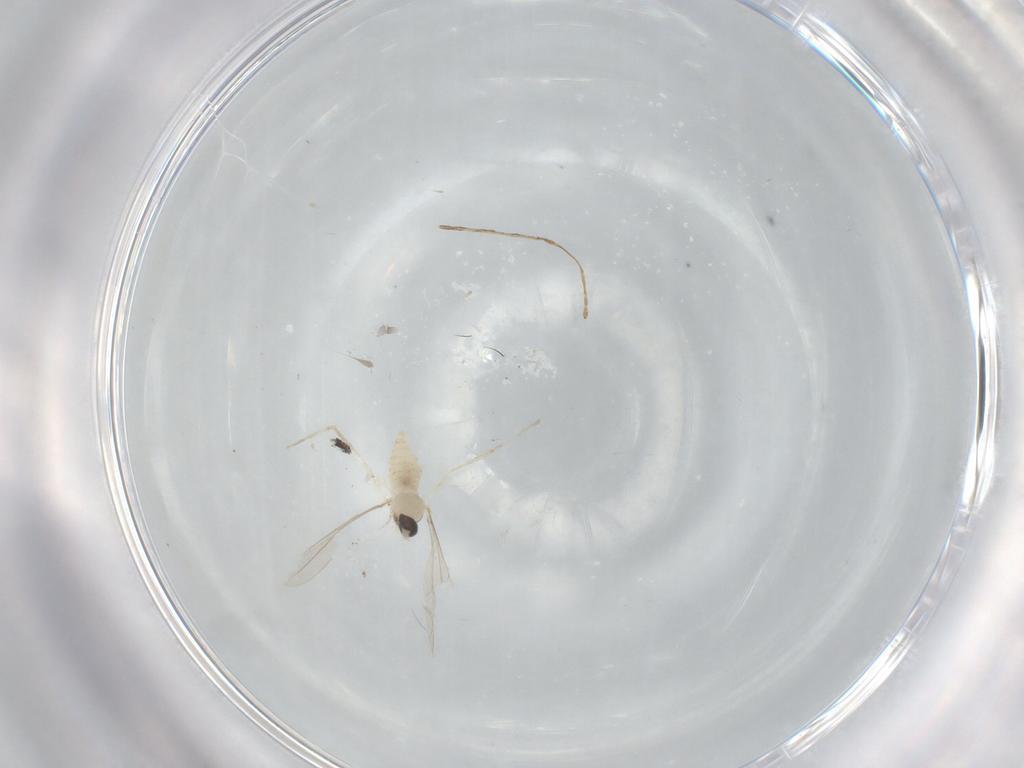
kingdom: Animalia
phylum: Arthropoda
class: Insecta
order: Diptera
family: Cecidomyiidae
